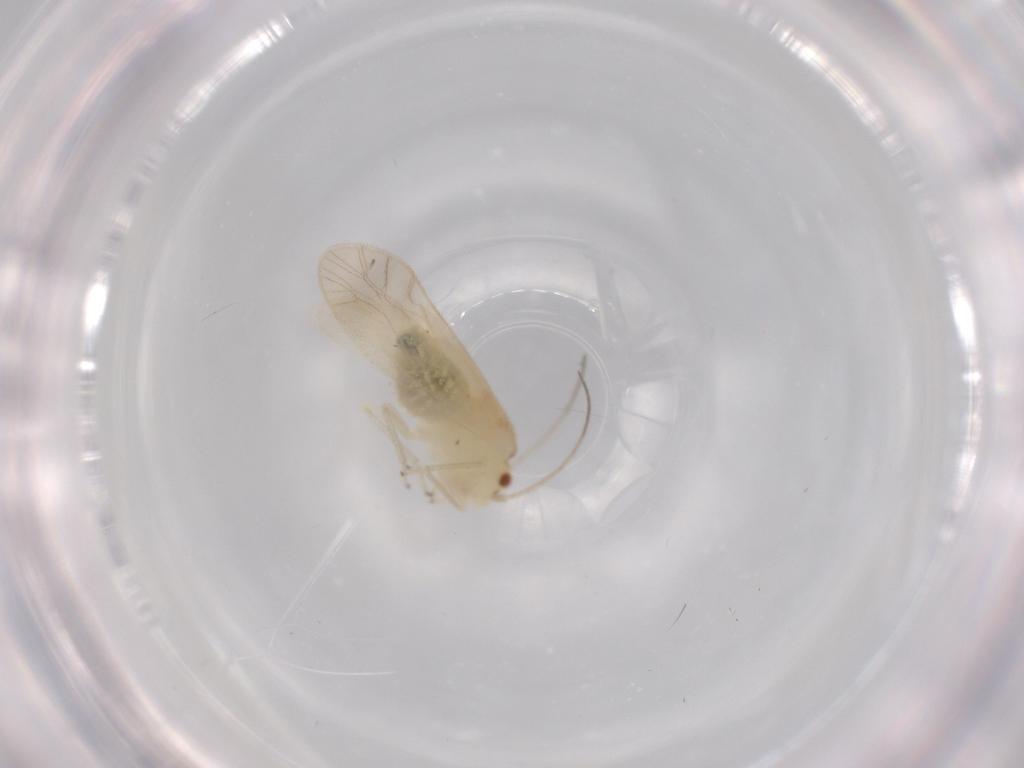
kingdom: Animalia
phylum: Arthropoda
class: Insecta
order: Psocodea
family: Caeciliusidae
